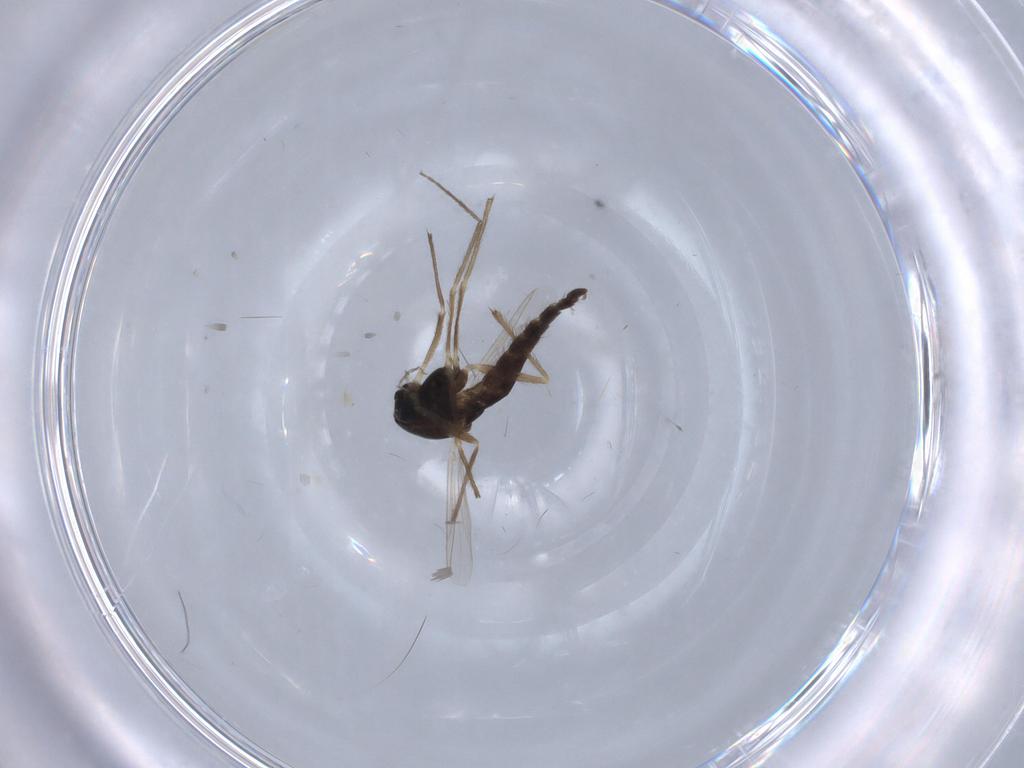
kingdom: Animalia
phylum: Arthropoda
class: Insecta
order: Diptera
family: Chironomidae
